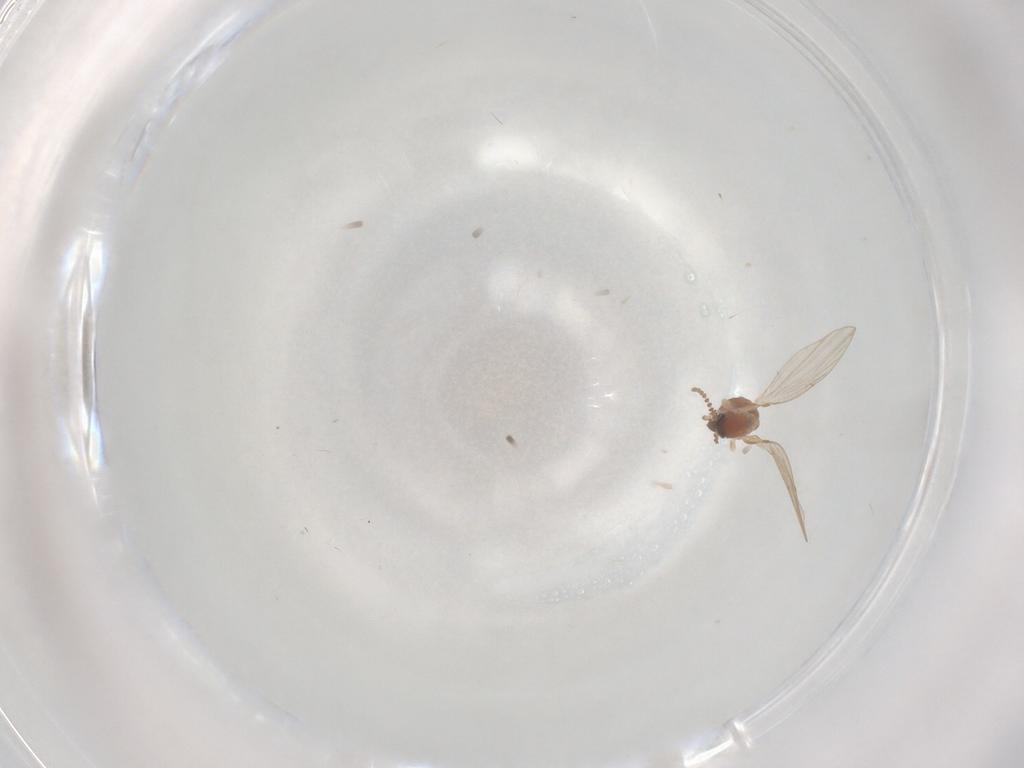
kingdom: Animalia
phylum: Arthropoda
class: Insecta
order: Diptera
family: Psychodidae
